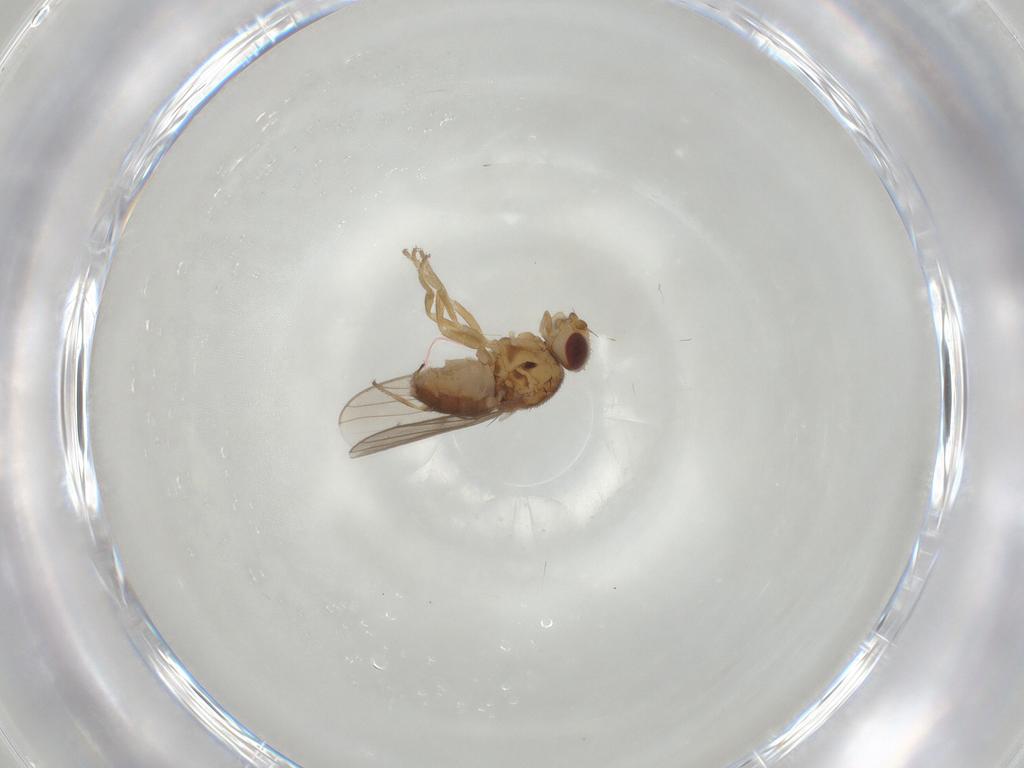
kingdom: Animalia
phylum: Arthropoda
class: Insecta
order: Diptera
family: Chloropidae
